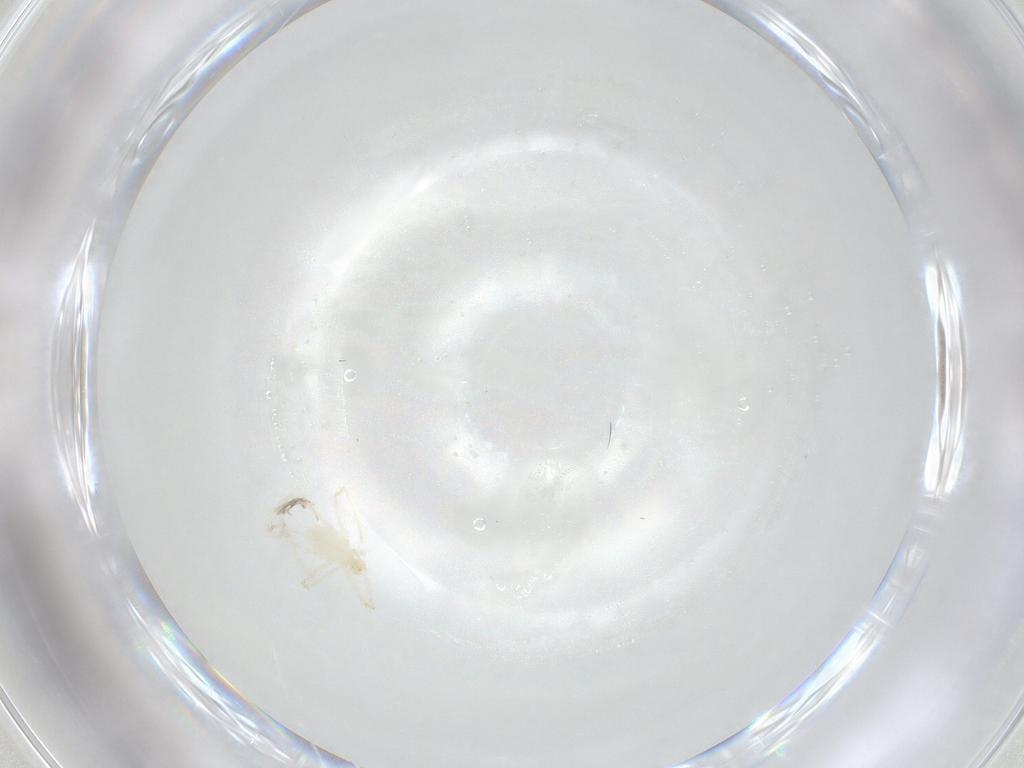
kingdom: Animalia
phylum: Arthropoda
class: Arachnida
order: Trombidiformes
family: Erythraeidae
